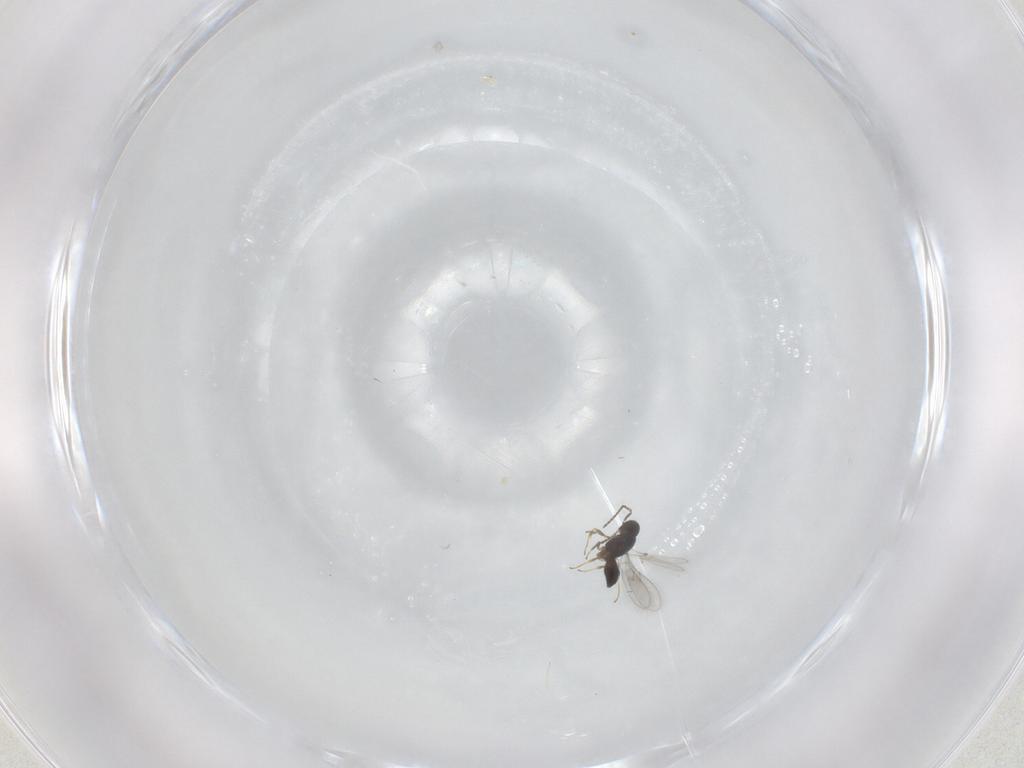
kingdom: Animalia
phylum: Arthropoda
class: Insecta
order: Hymenoptera
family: Scelionidae
